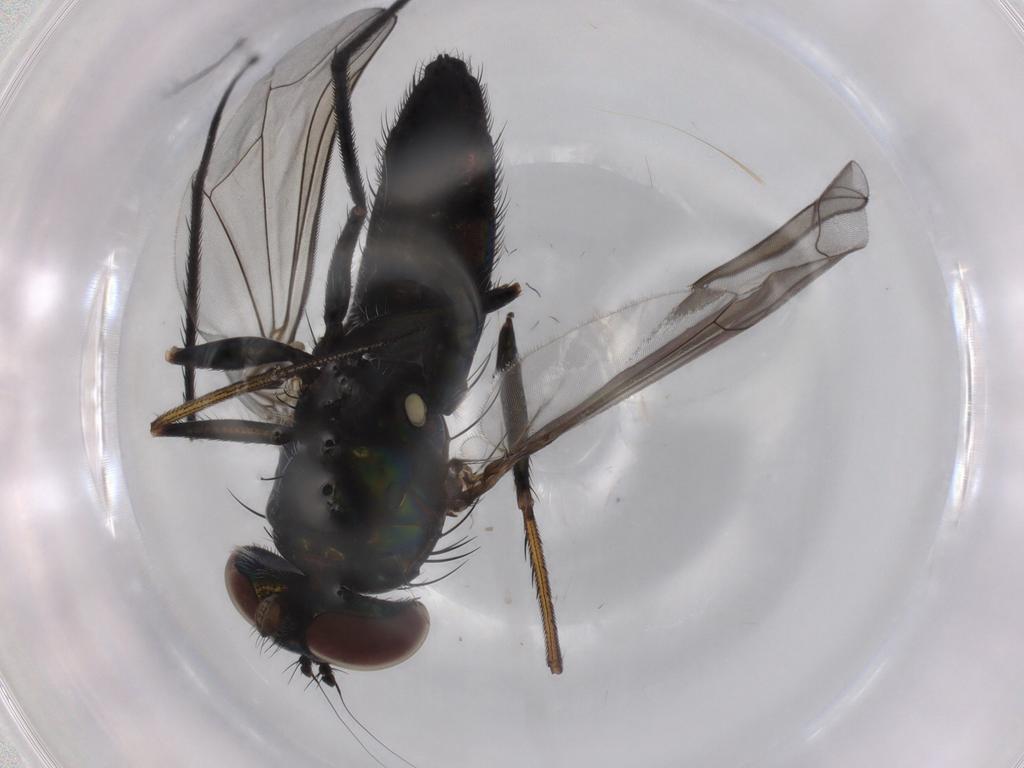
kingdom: Animalia
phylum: Arthropoda
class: Insecta
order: Diptera
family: Dolichopodidae
